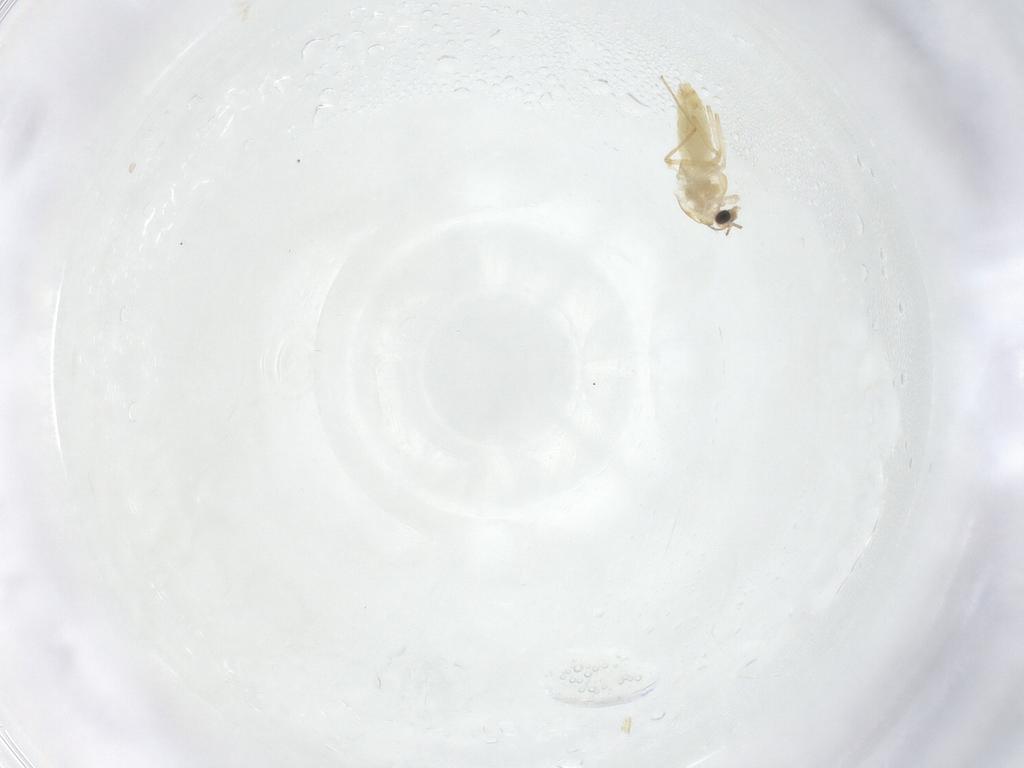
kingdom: Animalia
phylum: Arthropoda
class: Insecta
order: Diptera
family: Chironomidae
